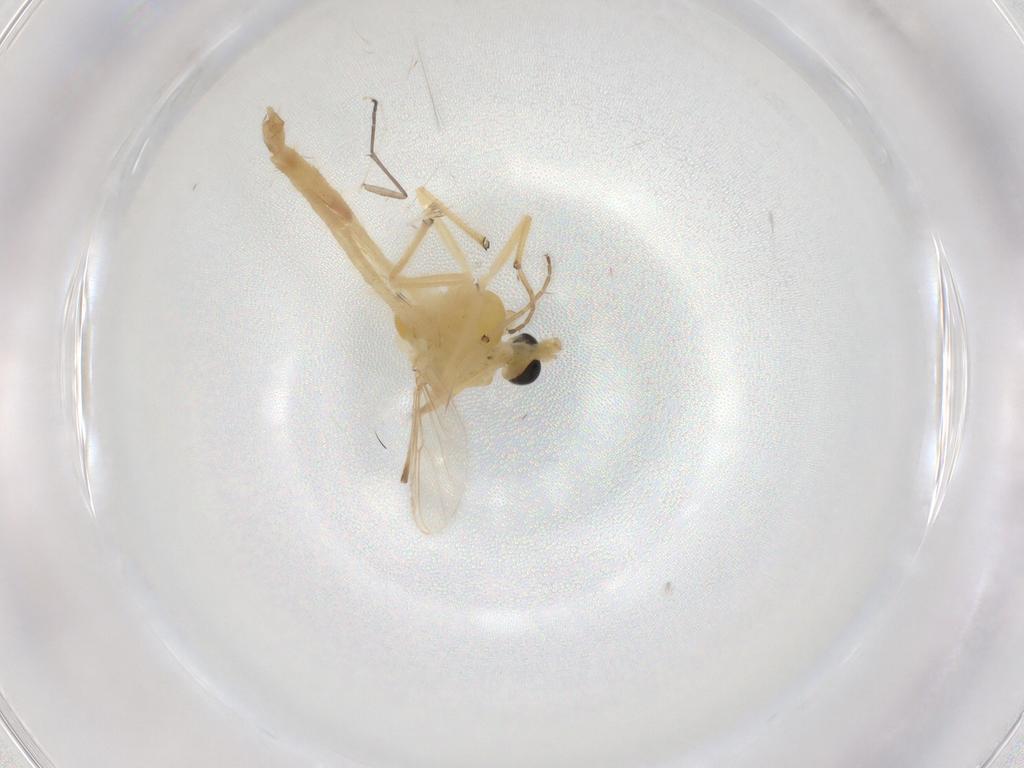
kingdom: Animalia
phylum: Arthropoda
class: Insecta
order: Diptera
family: Chironomidae
